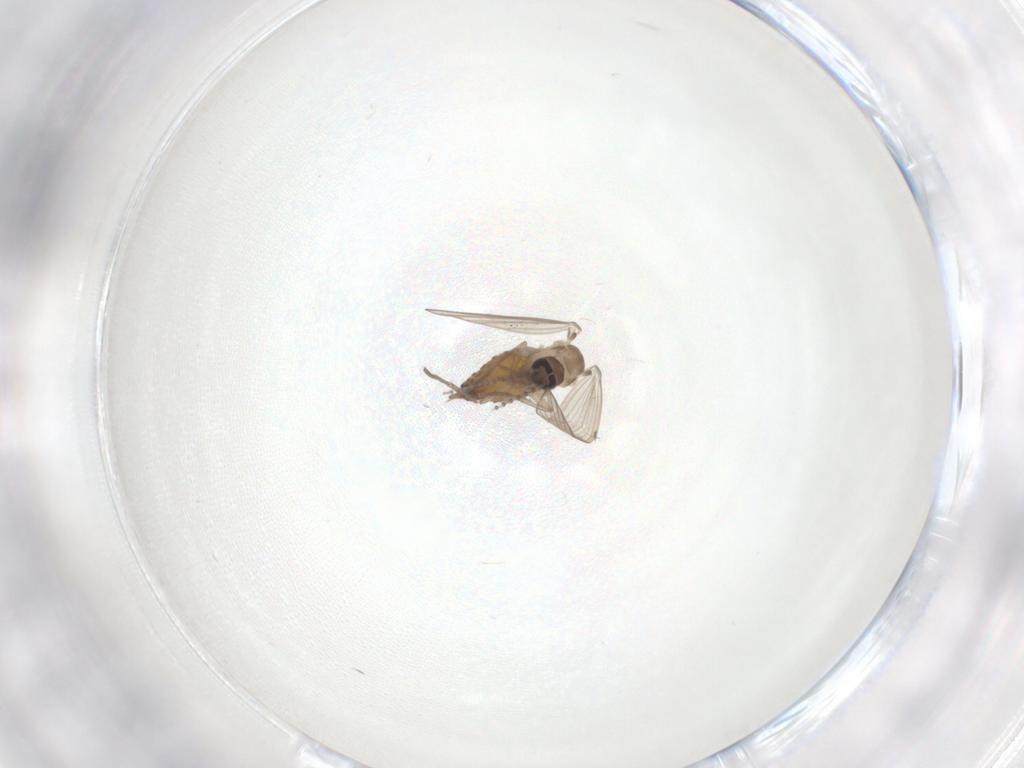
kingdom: Animalia
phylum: Arthropoda
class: Insecta
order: Diptera
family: Psychodidae
